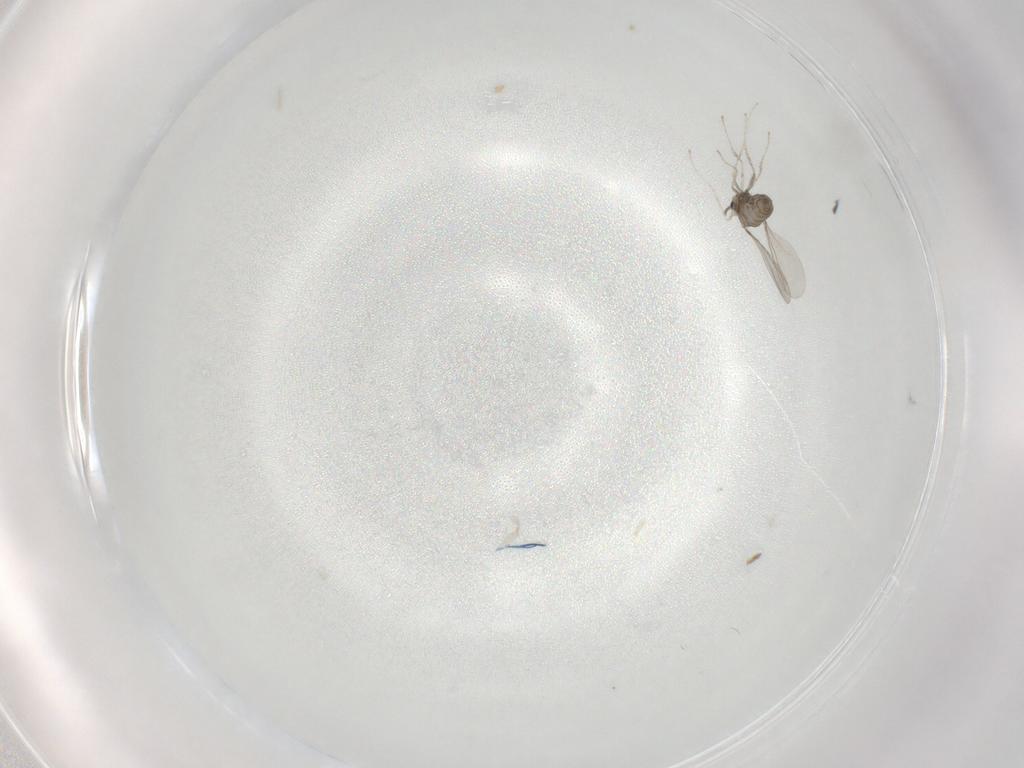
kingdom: Animalia
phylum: Arthropoda
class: Insecta
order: Diptera
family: Cecidomyiidae
